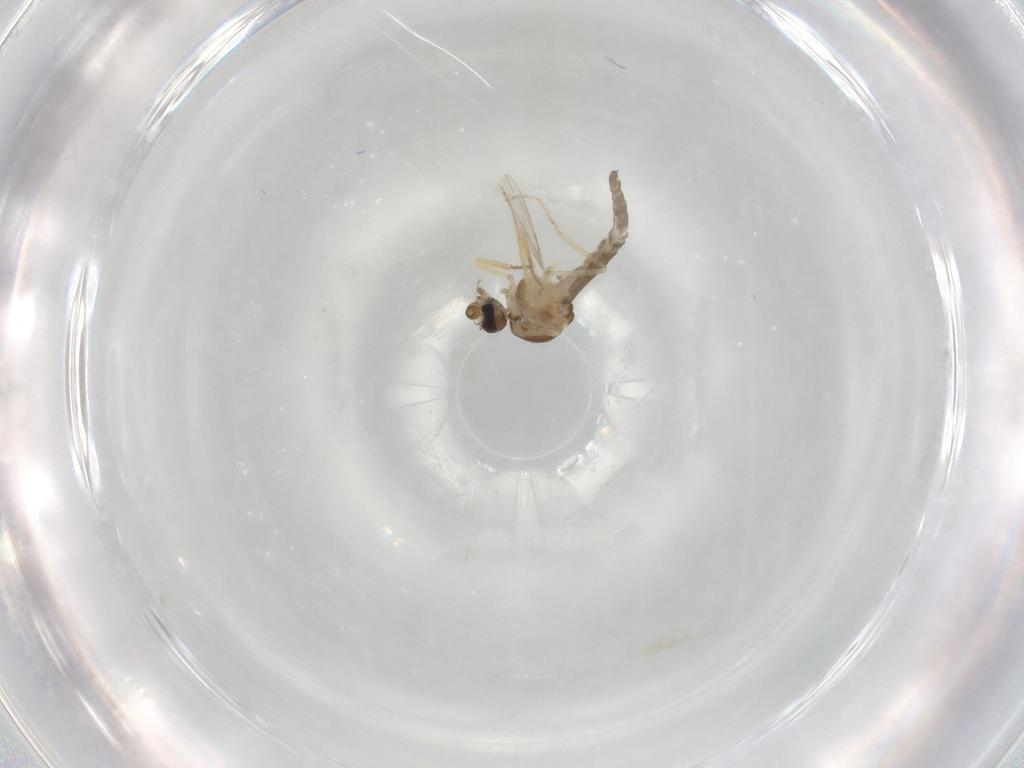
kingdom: Animalia
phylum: Arthropoda
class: Insecta
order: Diptera
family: Ceratopogonidae
